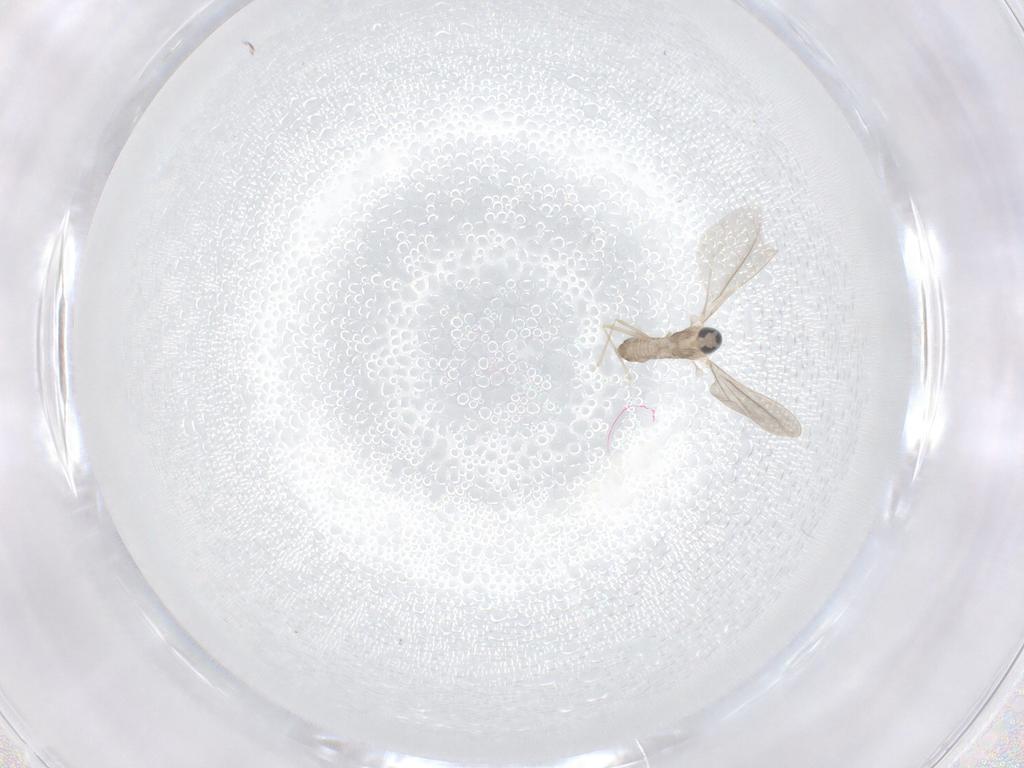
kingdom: Animalia
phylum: Arthropoda
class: Insecta
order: Diptera
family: Cecidomyiidae
